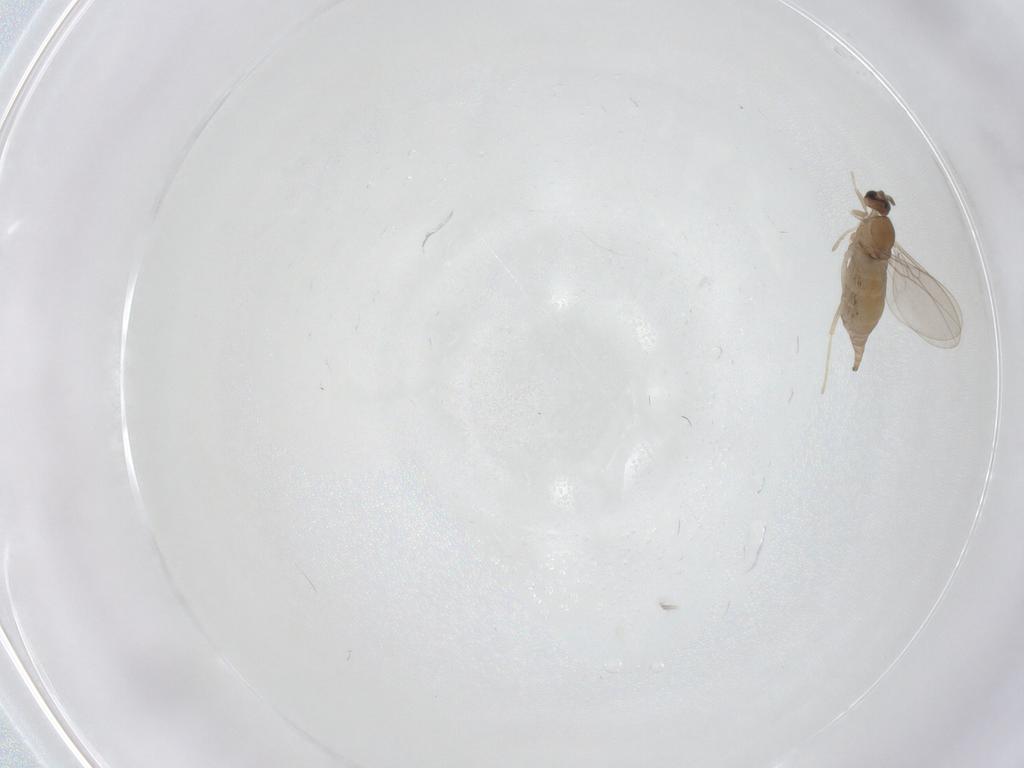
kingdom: Animalia
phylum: Arthropoda
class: Insecta
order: Diptera
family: Cecidomyiidae
